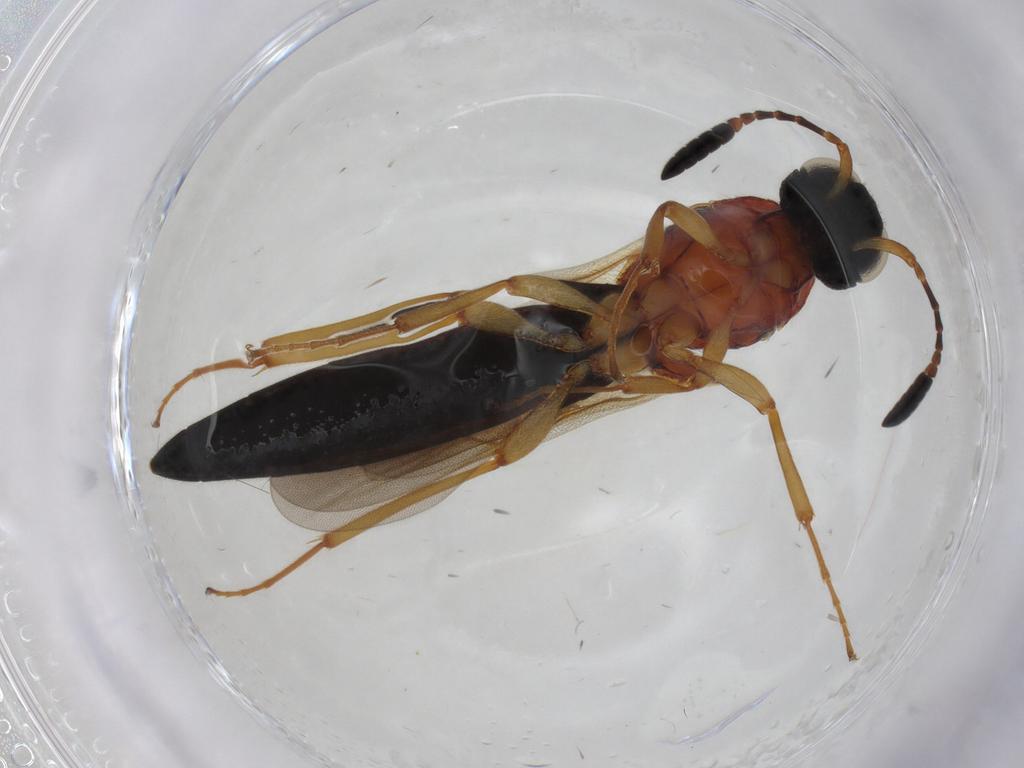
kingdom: Animalia
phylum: Arthropoda
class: Insecta
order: Hymenoptera
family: Scelionidae
